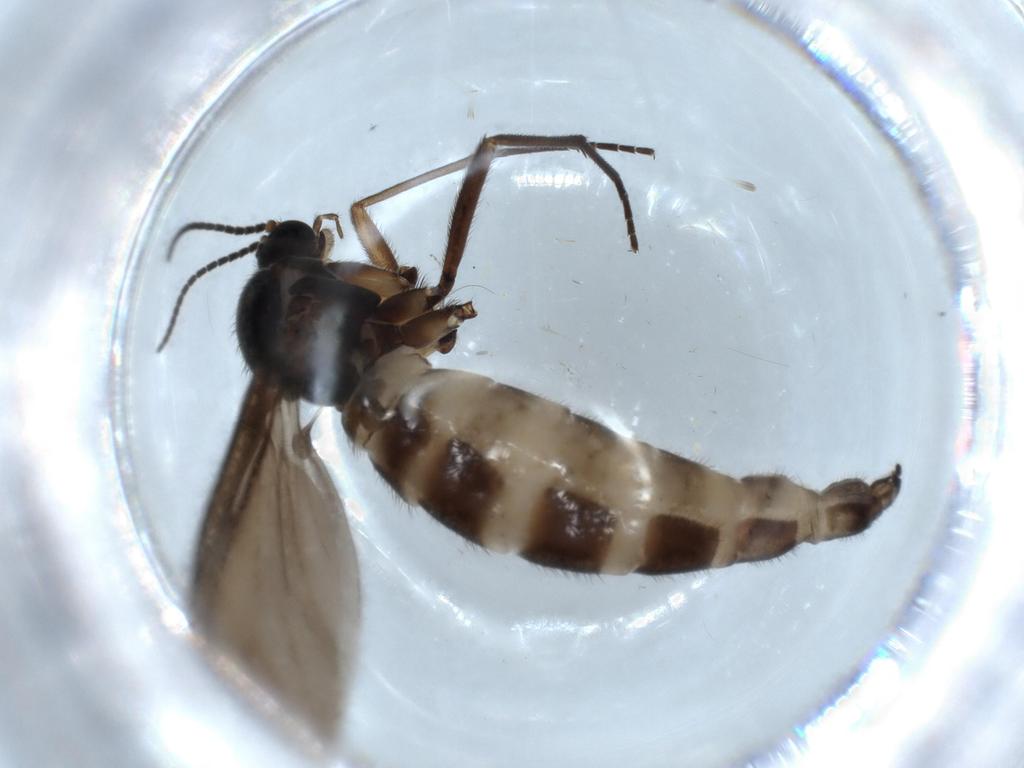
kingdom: Animalia
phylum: Arthropoda
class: Insecta
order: Diptera
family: Sciaridae
